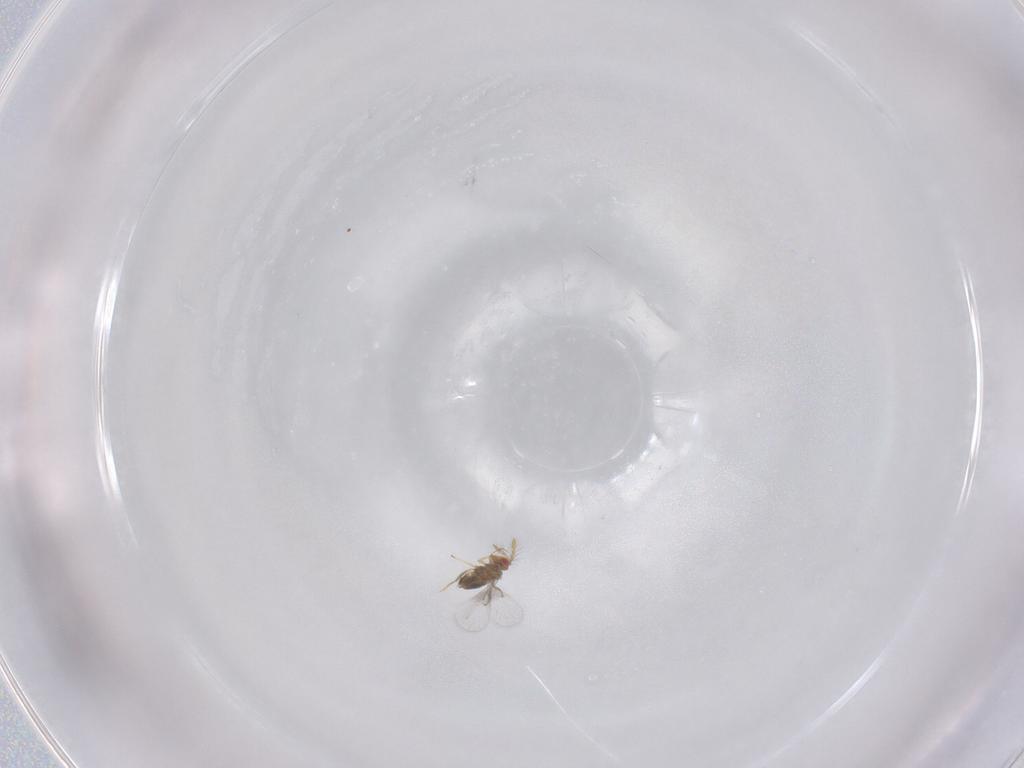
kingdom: Animalia
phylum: Arthropoda
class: Insecta
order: Hymenoptera
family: Trichogrammatidae
